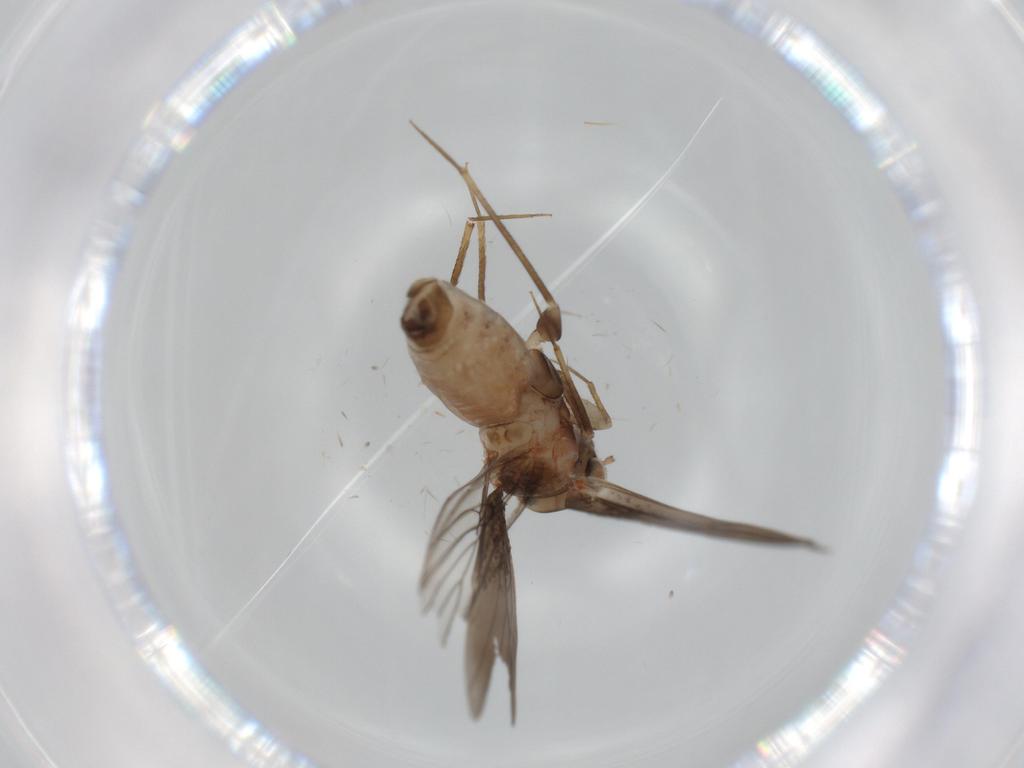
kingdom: Animalia
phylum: Arthropoda
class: Insecta
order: Psocodea
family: Lepidopsocidae
